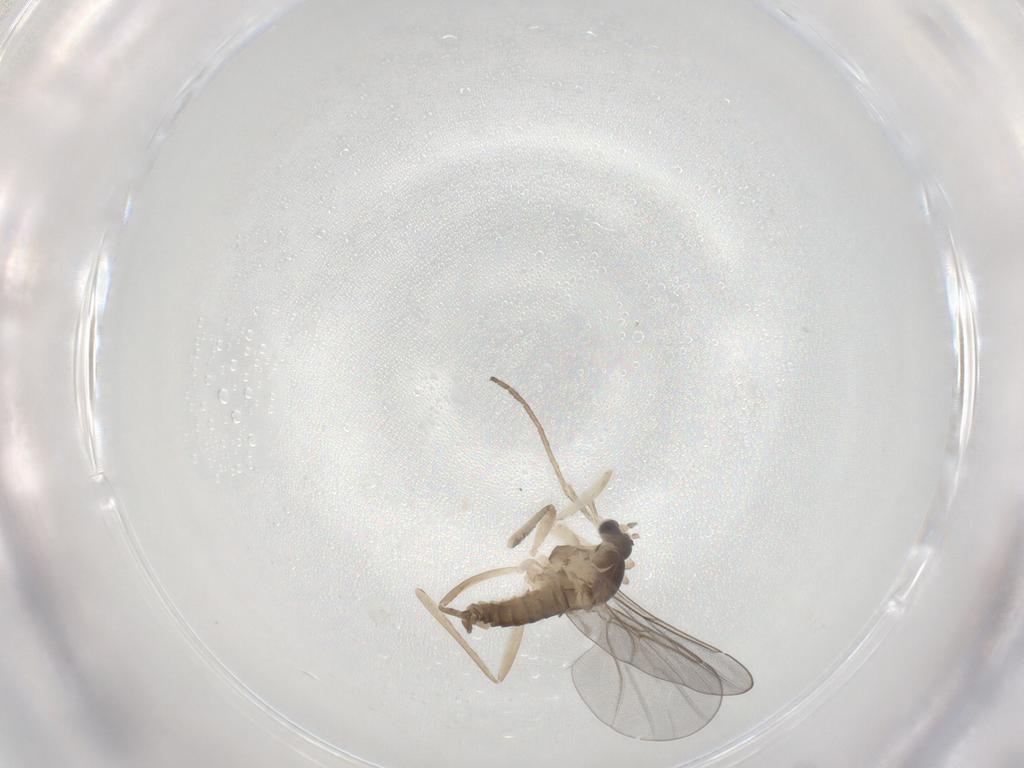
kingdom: Animalia
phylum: Arthropoda
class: Insecta
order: Diptera
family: Cecidomyiidae
